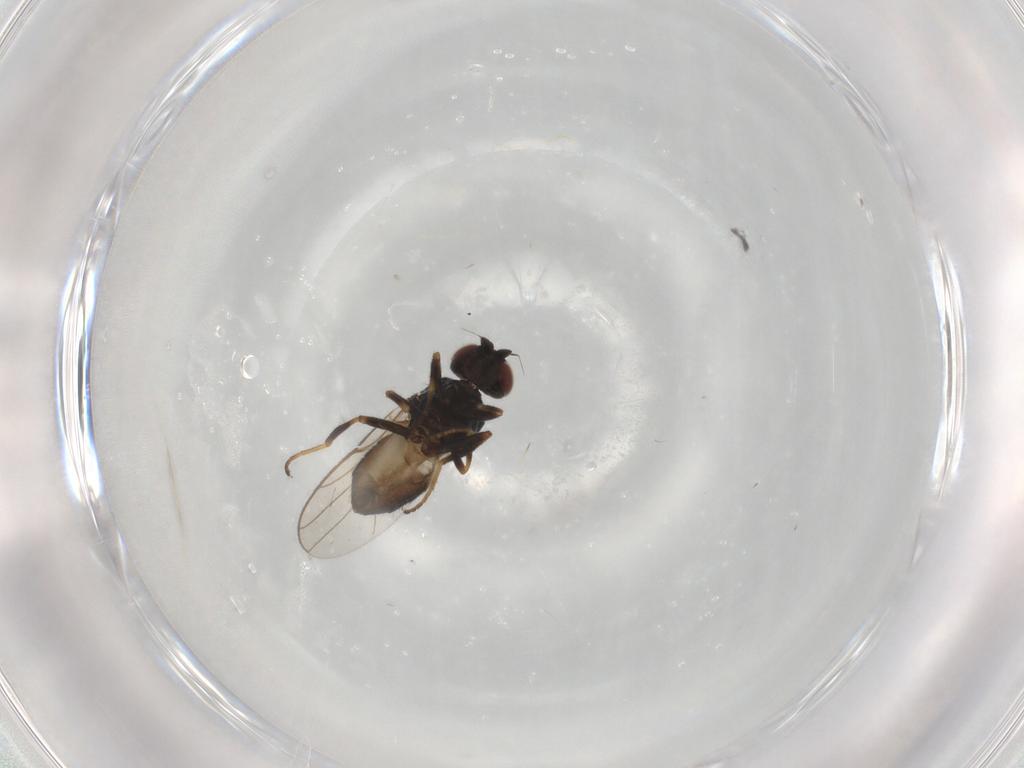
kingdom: Animalia
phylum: Arthropoda
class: Insecta
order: Diptera
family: Chloropidae
